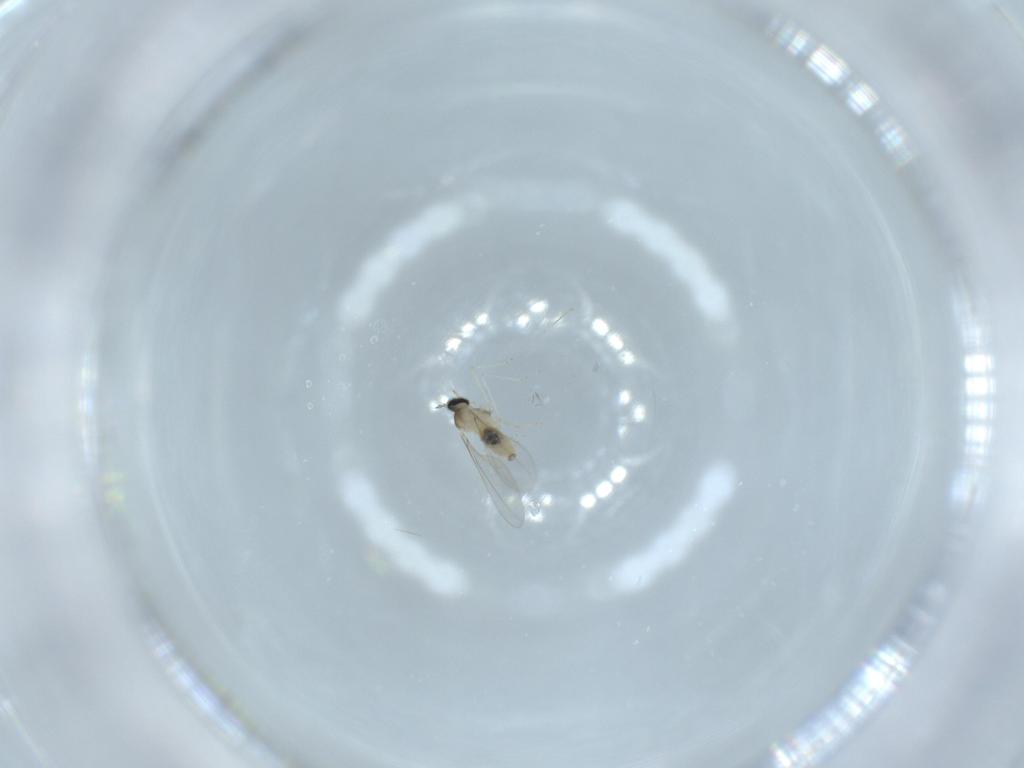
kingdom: Animalia
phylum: Arthropoda
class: Insecta
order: Diptera
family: Cecidomyiidae
